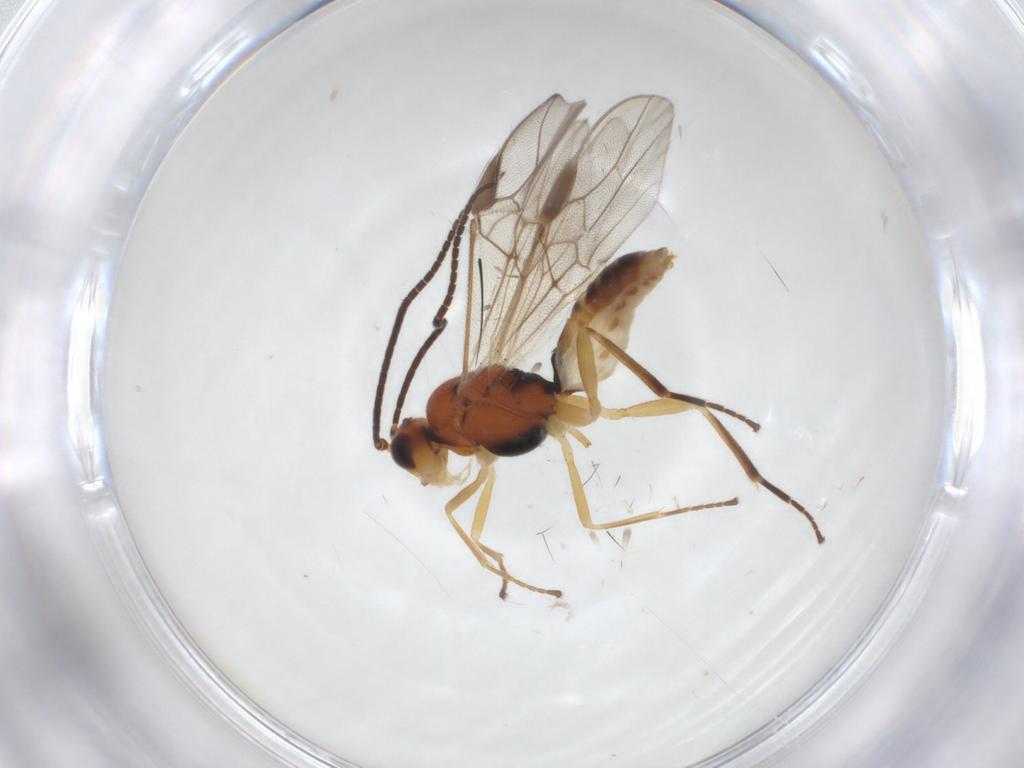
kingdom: Animalia
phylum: Arthropoda
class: Insecta
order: Hymenoptera
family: Braconidae
